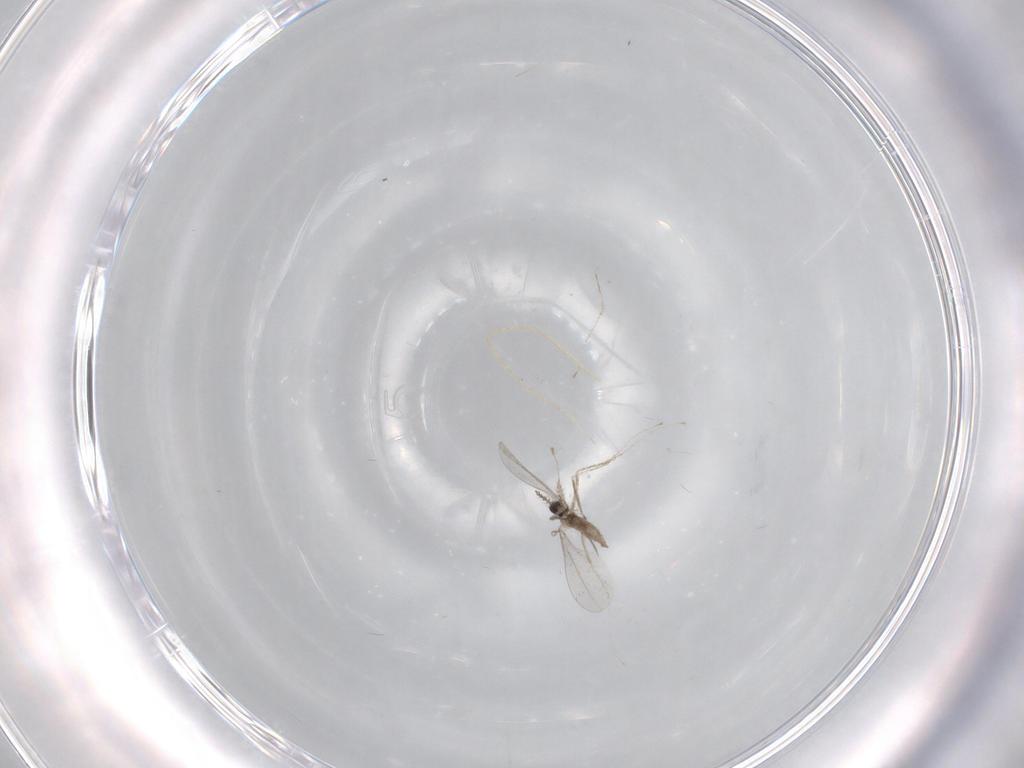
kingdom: Animalia
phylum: Arthropoda
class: Insecta
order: Diptera
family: Cecidomyiidae
